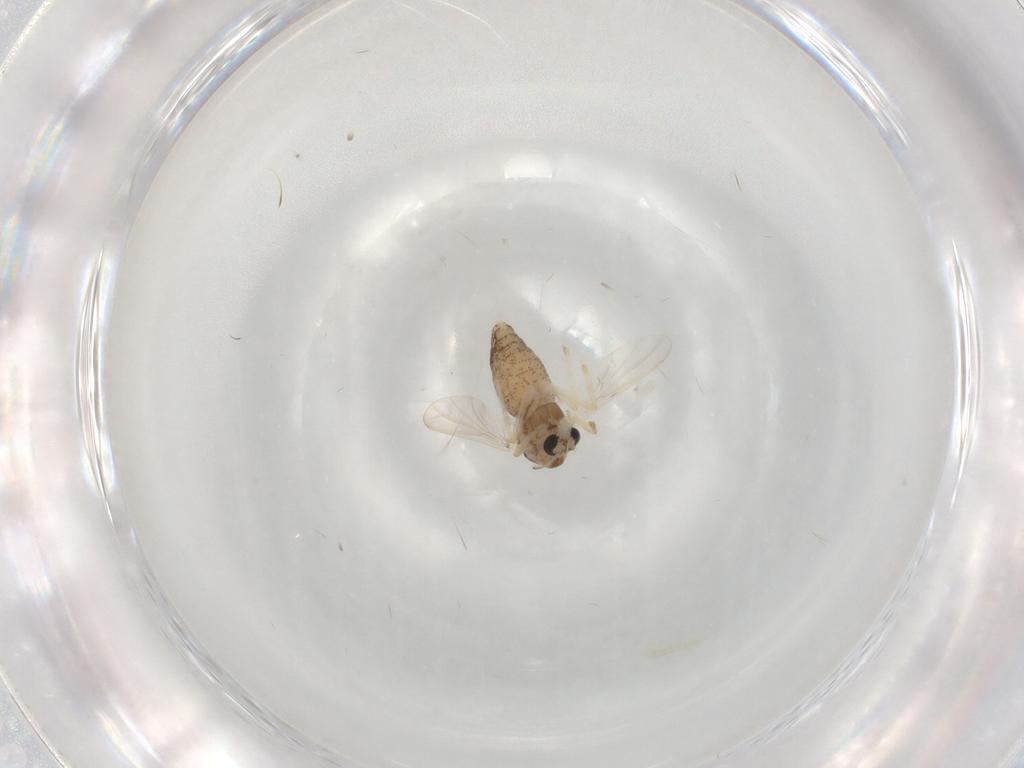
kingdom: Animalia
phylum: Arthropoda
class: Insecta
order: Diptera
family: Chironomidae
